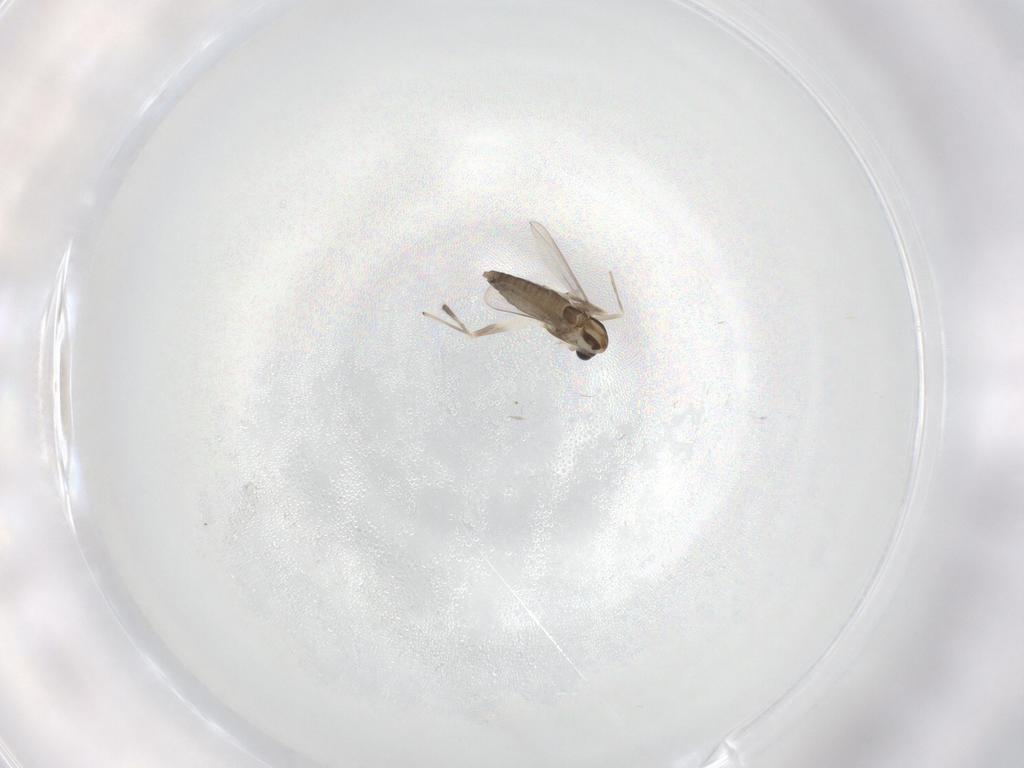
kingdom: Animalia
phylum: Arthropoda
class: Insecta
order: Diptera
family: Chironomidae
